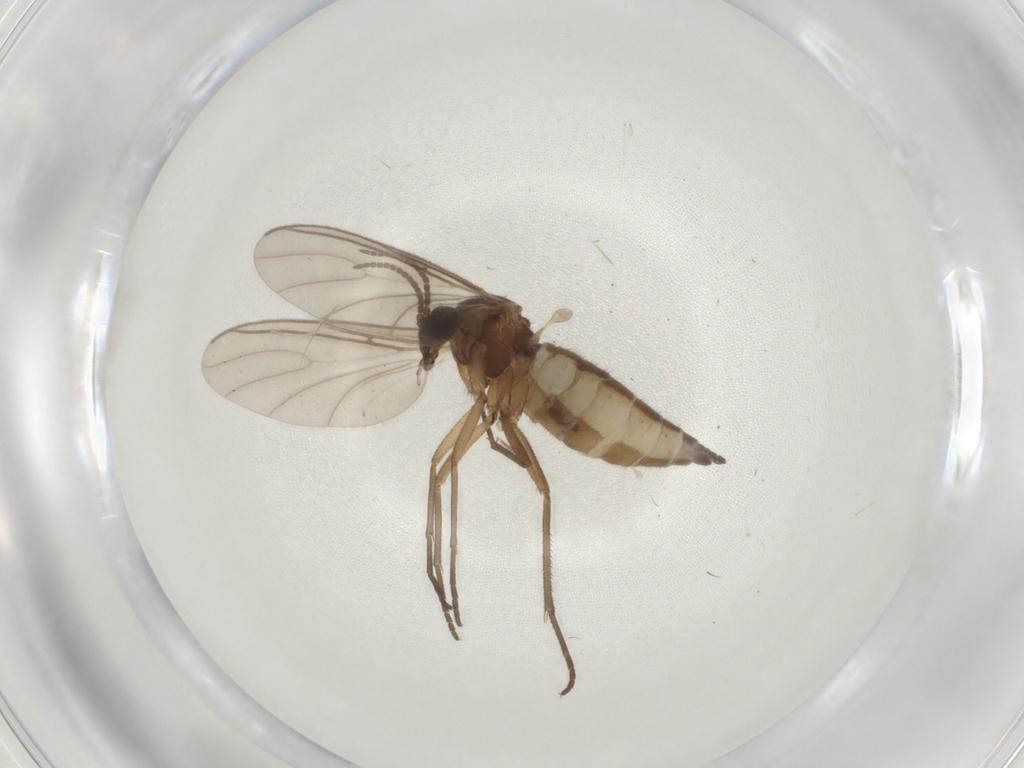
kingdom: Animalia
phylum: Arthropoda
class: Insecta
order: Diptera
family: Sciaridae
